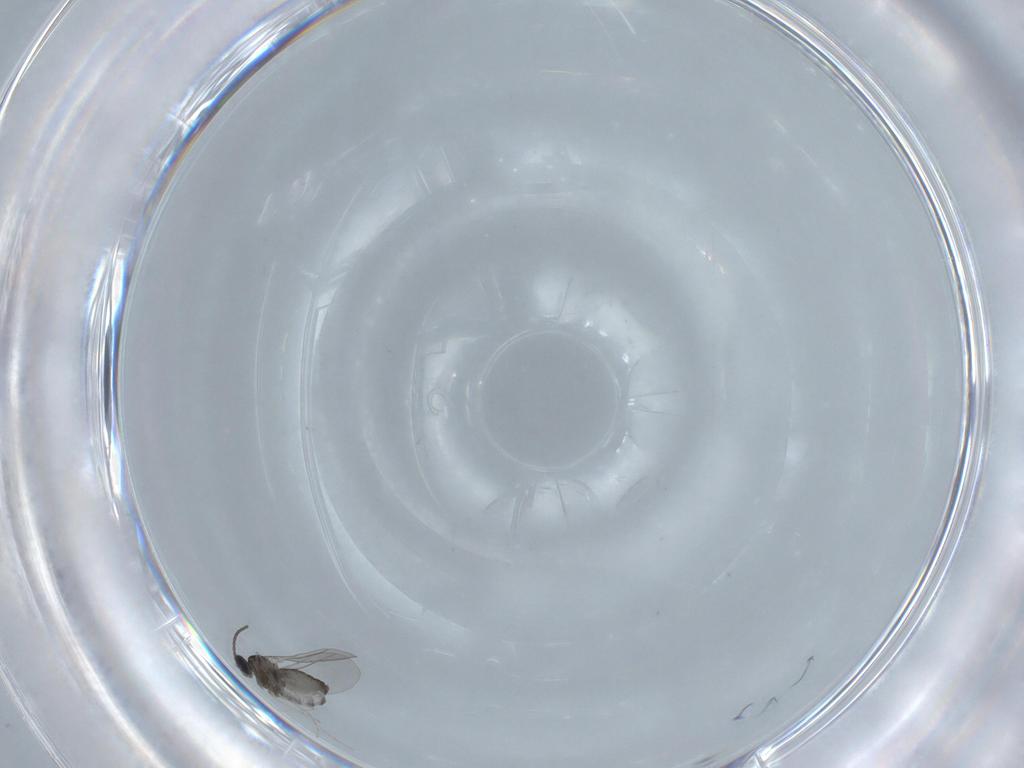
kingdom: Animalia
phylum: Arthropoda
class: Insecta
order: Diptera
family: Cecidomyiidae
